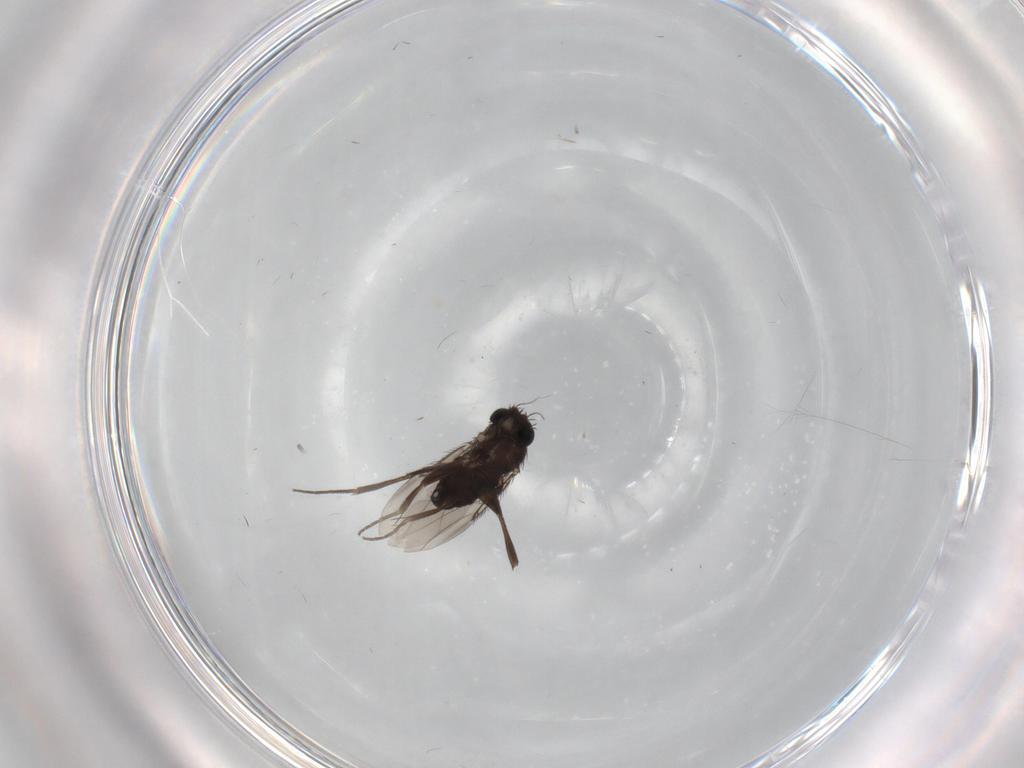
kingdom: Animalia
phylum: Arthropoda
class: Insecta
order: Diptera
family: Phoridae
